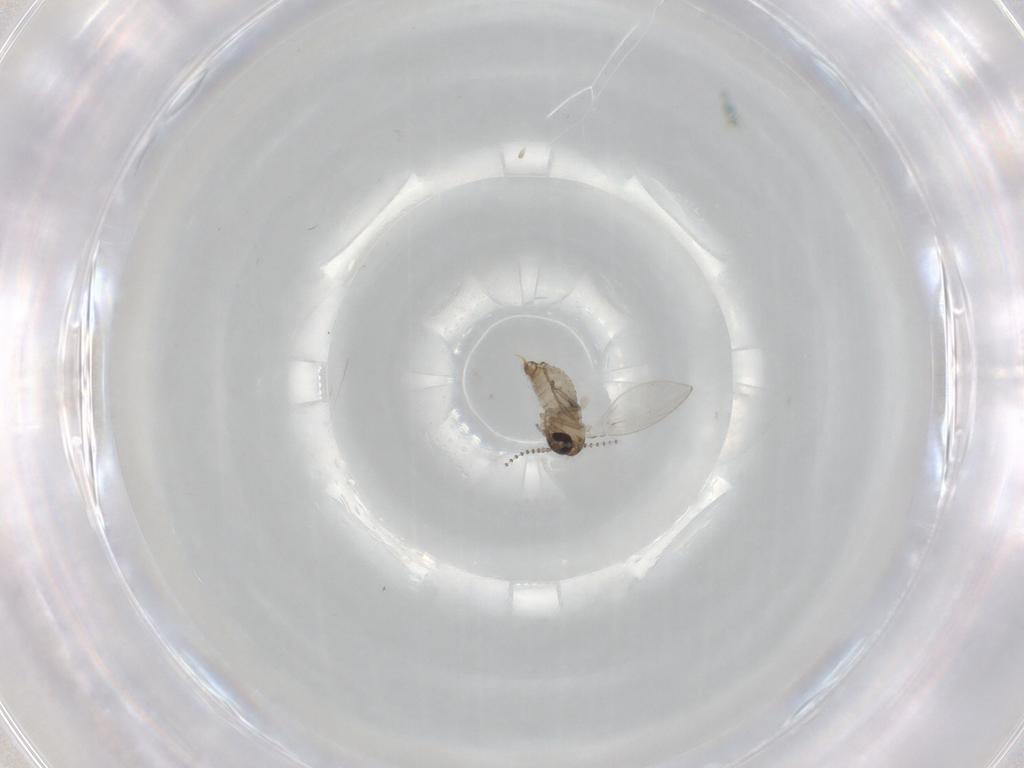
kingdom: Animalia
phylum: Arthropoda
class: Insecta
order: Diptera
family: Psychodidae
